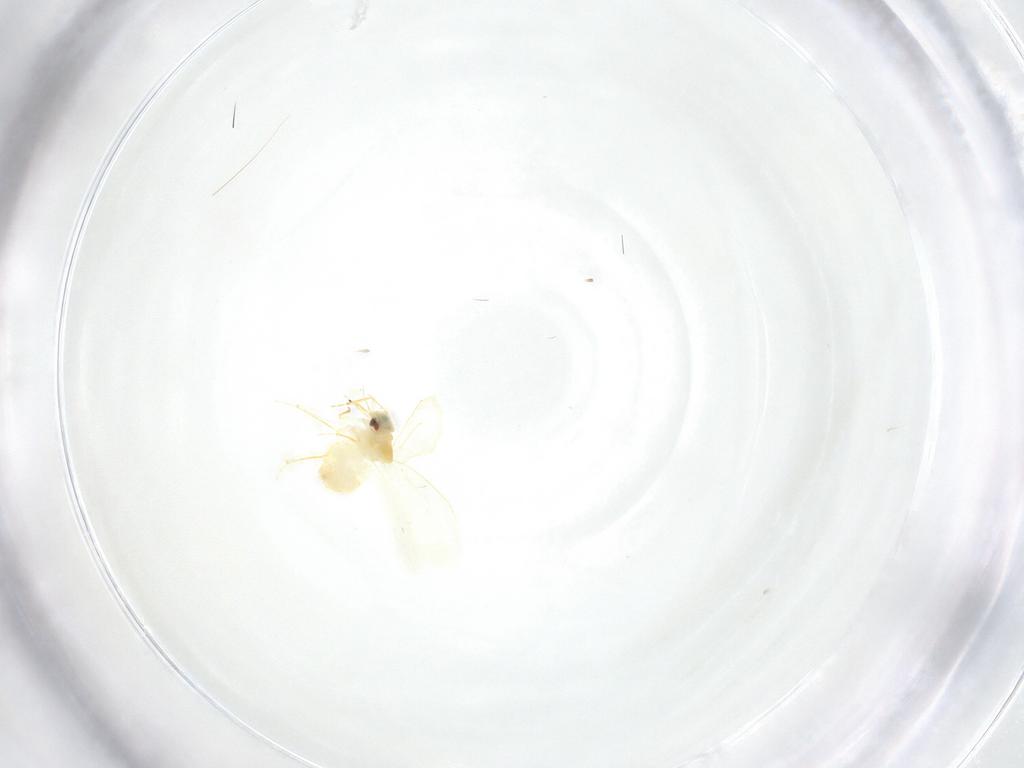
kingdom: Animalia
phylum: Arthropoda
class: Insecta
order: Hemiptera
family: Aleyrodidae
